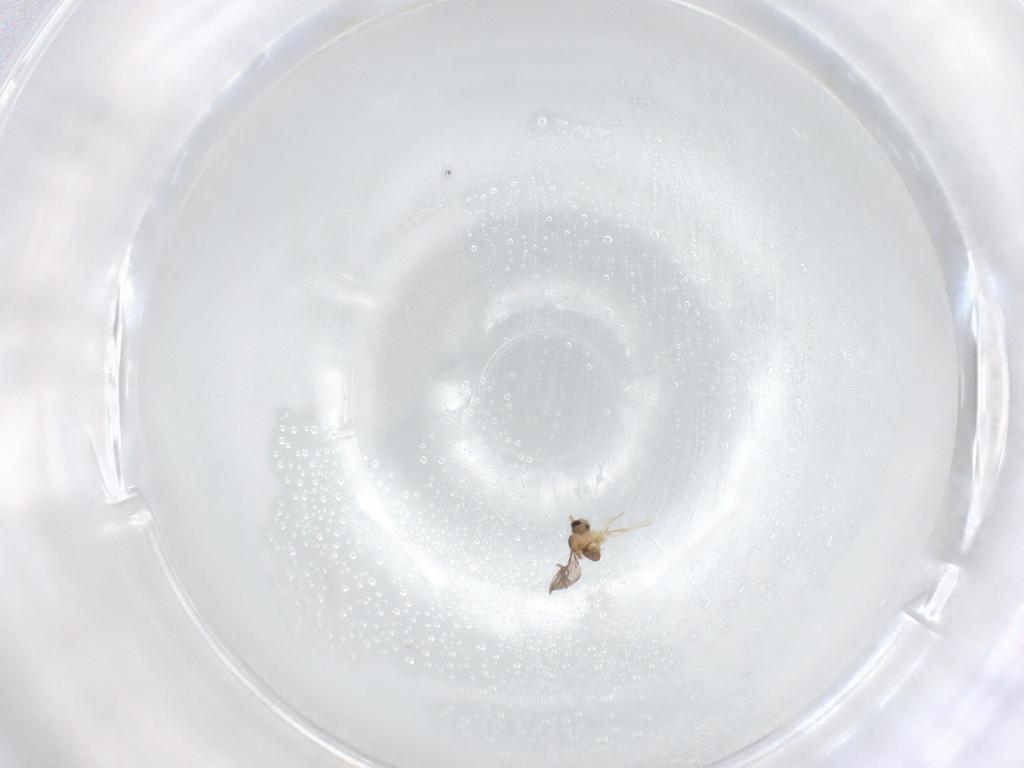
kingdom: Animalia
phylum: Arthropoda
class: Insecta
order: Diptera
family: Cecidomyiidae
